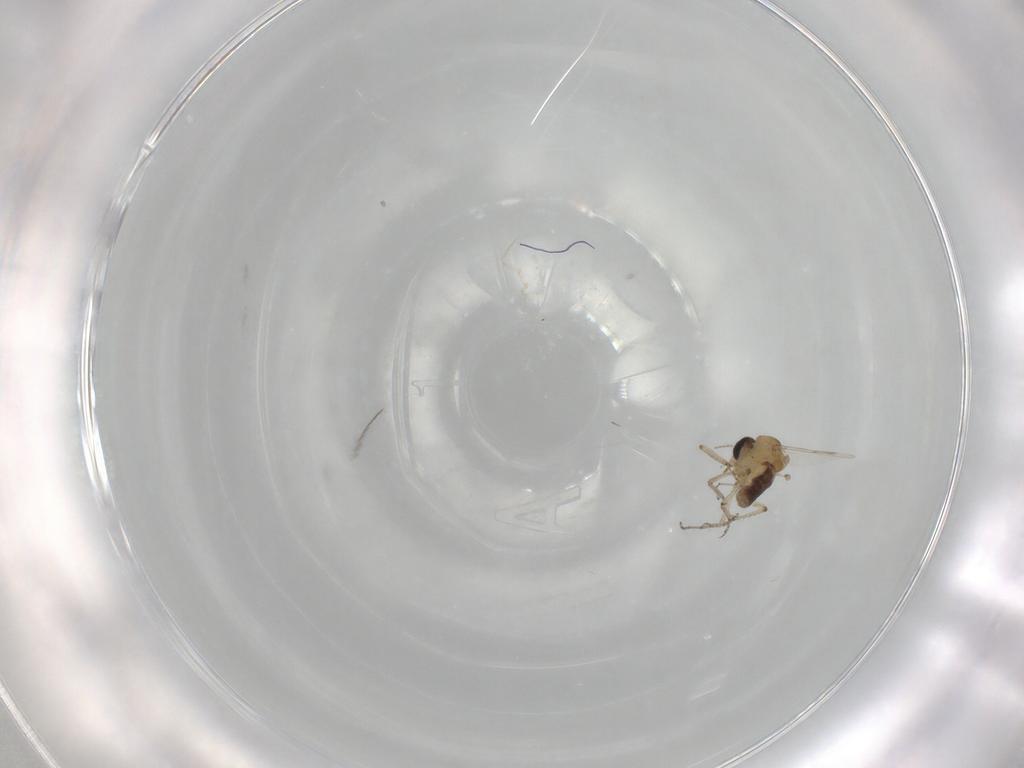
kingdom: Animalia
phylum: Arthropoda
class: Insecta
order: Diptera
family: Ceratopogonidae
